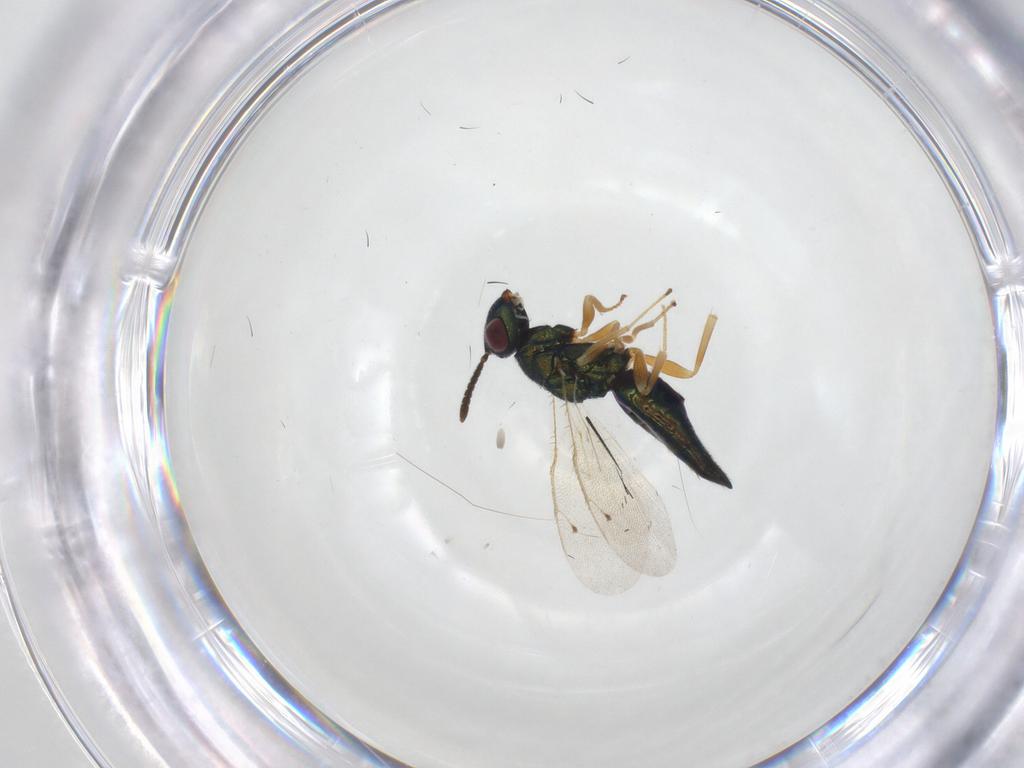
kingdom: Animalia
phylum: Arthropoda
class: Insecta
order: Hymenoptera
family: Pteromalidae
